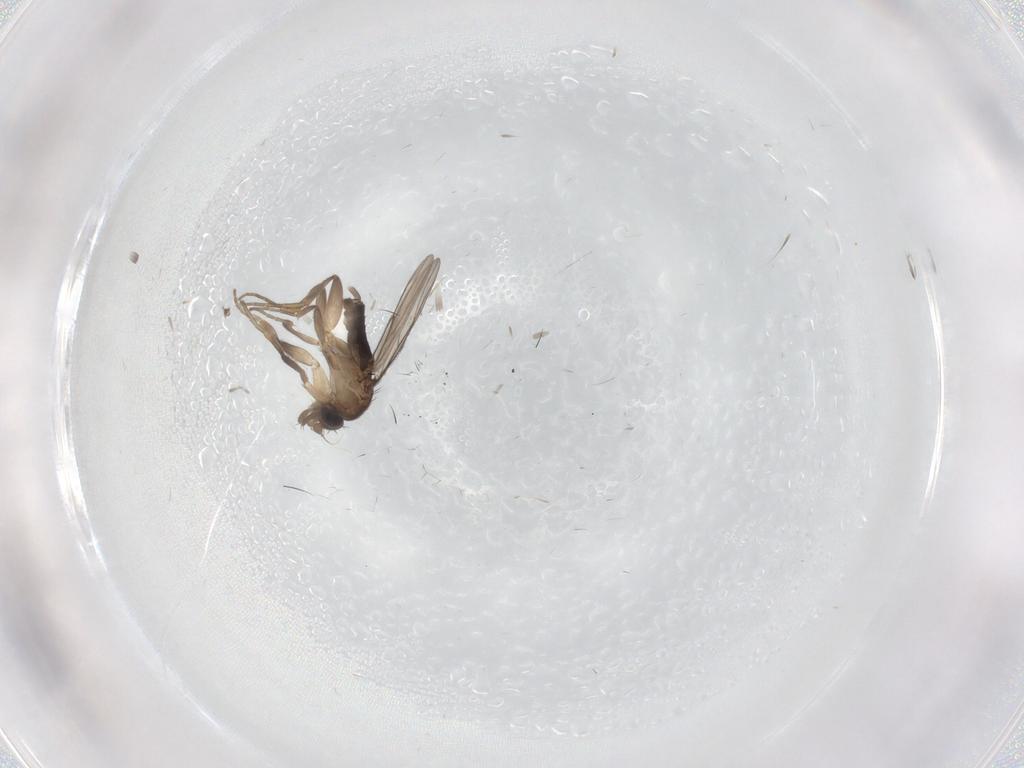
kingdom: Animalia
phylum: Arthropoda
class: Insecta
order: Diptera
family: Phoridae
